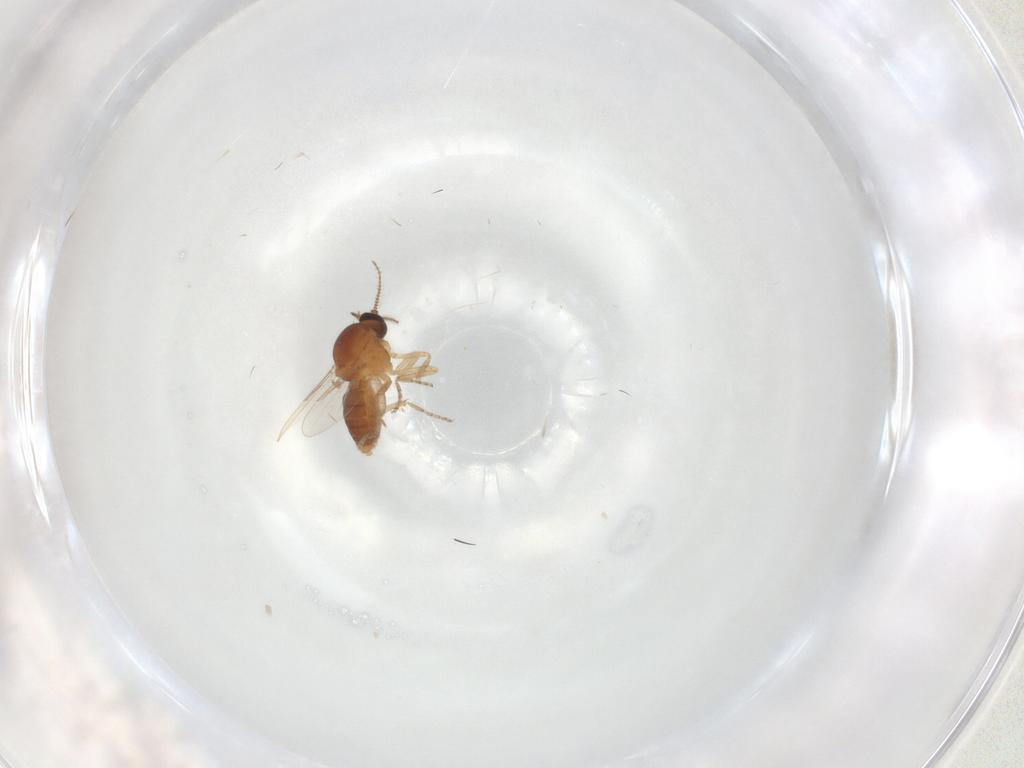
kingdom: Animalia
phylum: Arthropoda
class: Insecta
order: Diptera
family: Ceratopogonidae
